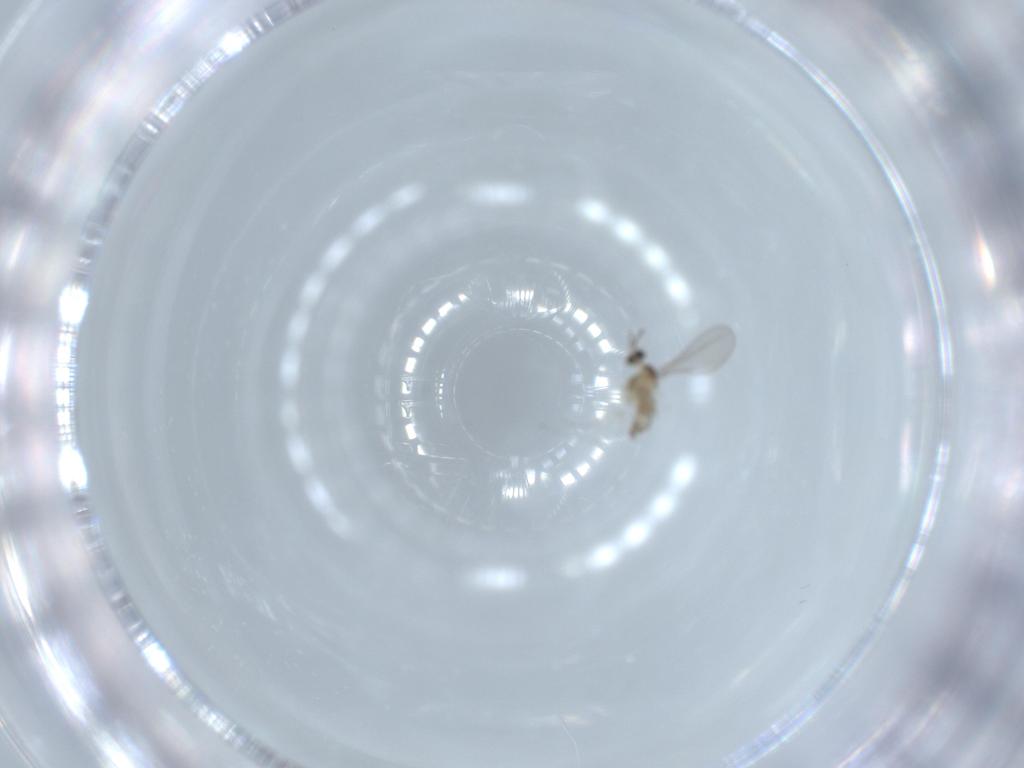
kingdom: Animalia
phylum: Arthropoda
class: Insecta
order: Diptera
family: Chironomidae
